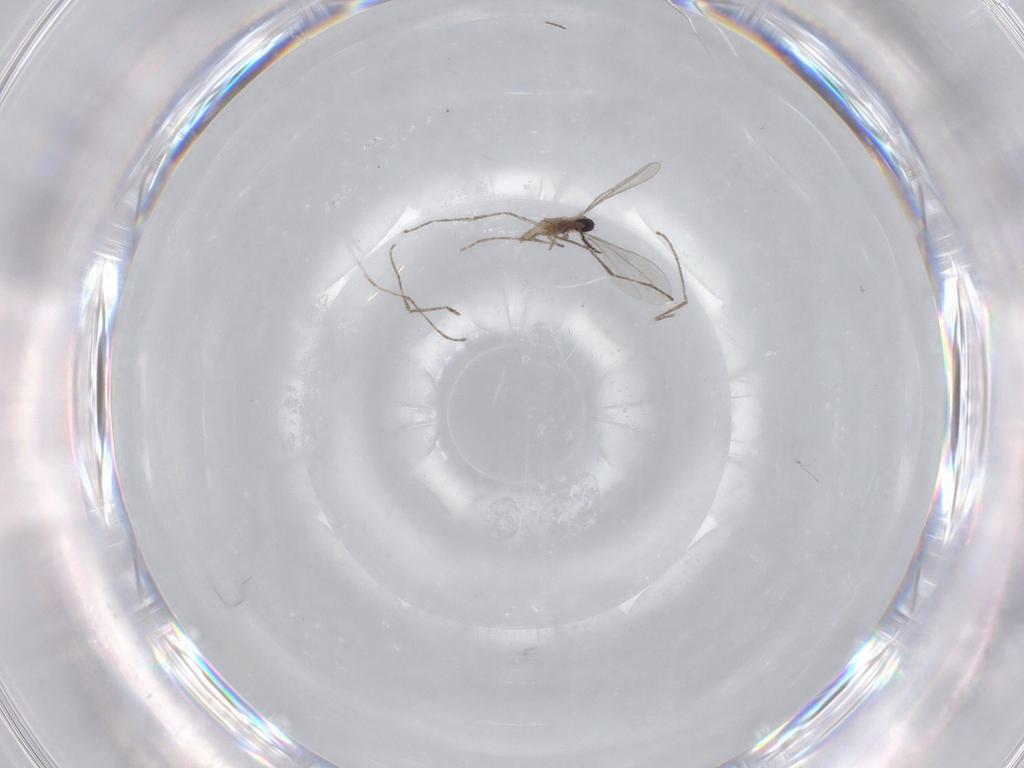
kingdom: Animalia
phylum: Arthropoda
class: Insecta
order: Diptera
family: Cecidomyiidae
